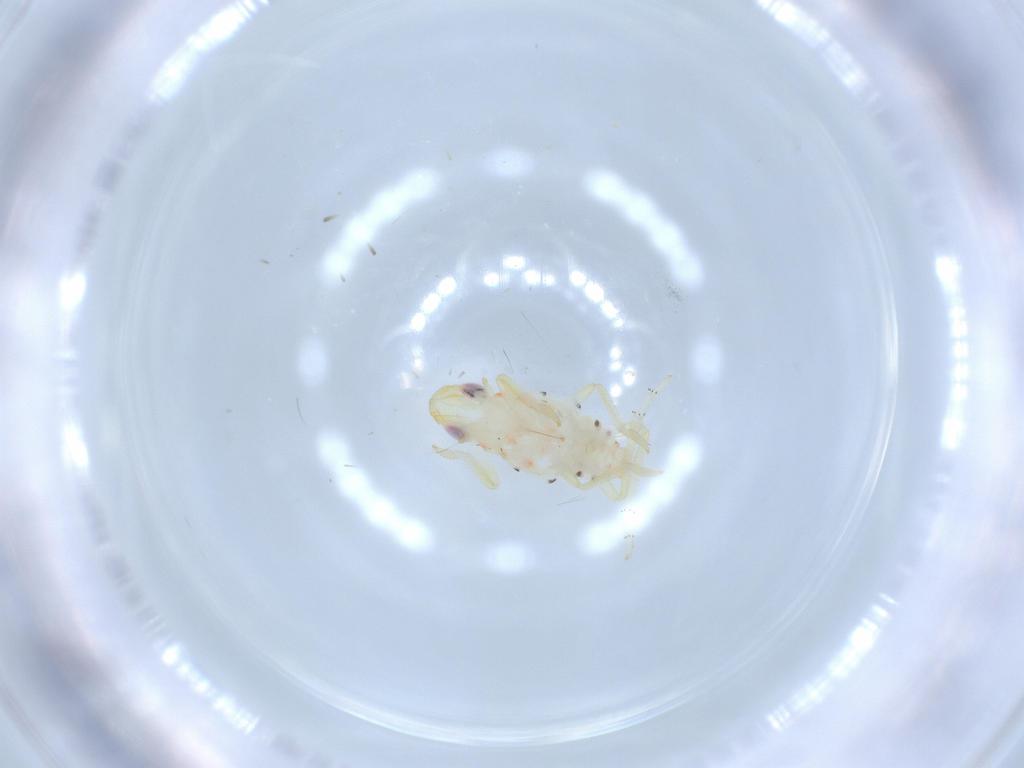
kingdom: Animalia
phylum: Arthropoda
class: Insecta
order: Hemiptera
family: Tropiduchidae
